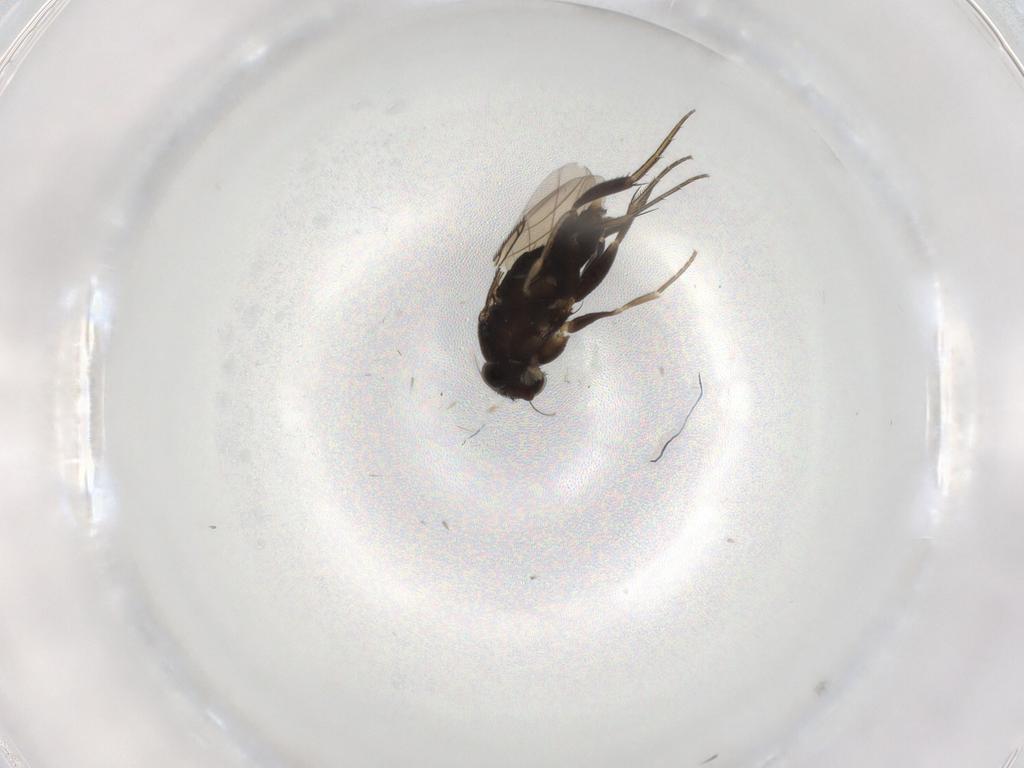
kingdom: Animalia
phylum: Arthropoda
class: Insecta
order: Diptera
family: Phoridae
